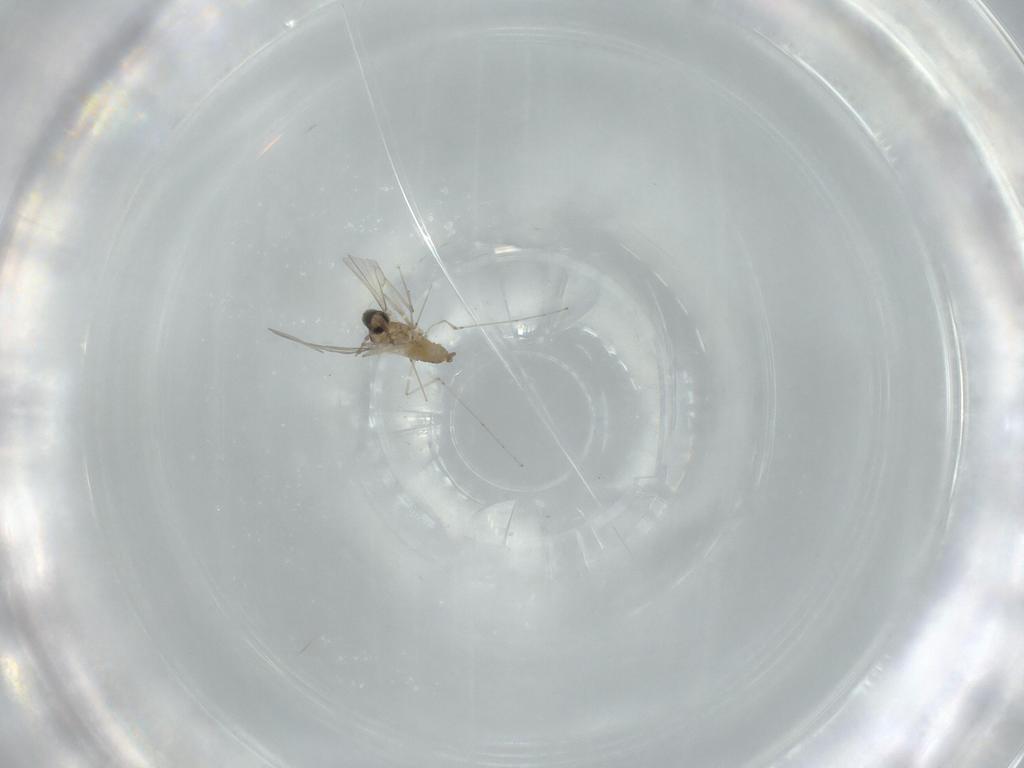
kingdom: Animalia
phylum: Arthropoda
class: Insecta
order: Diptera
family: Cecidomyiidae
